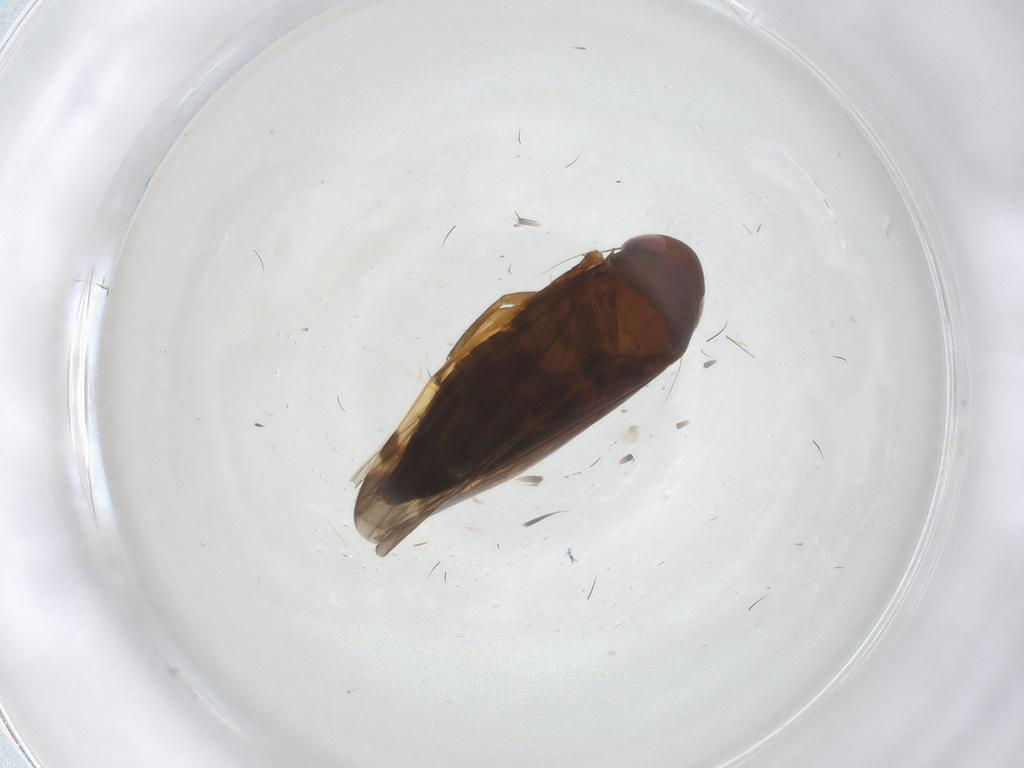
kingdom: Animalia
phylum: Arthropoda
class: Insecta
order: Hemiptera
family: Cicadellidae
